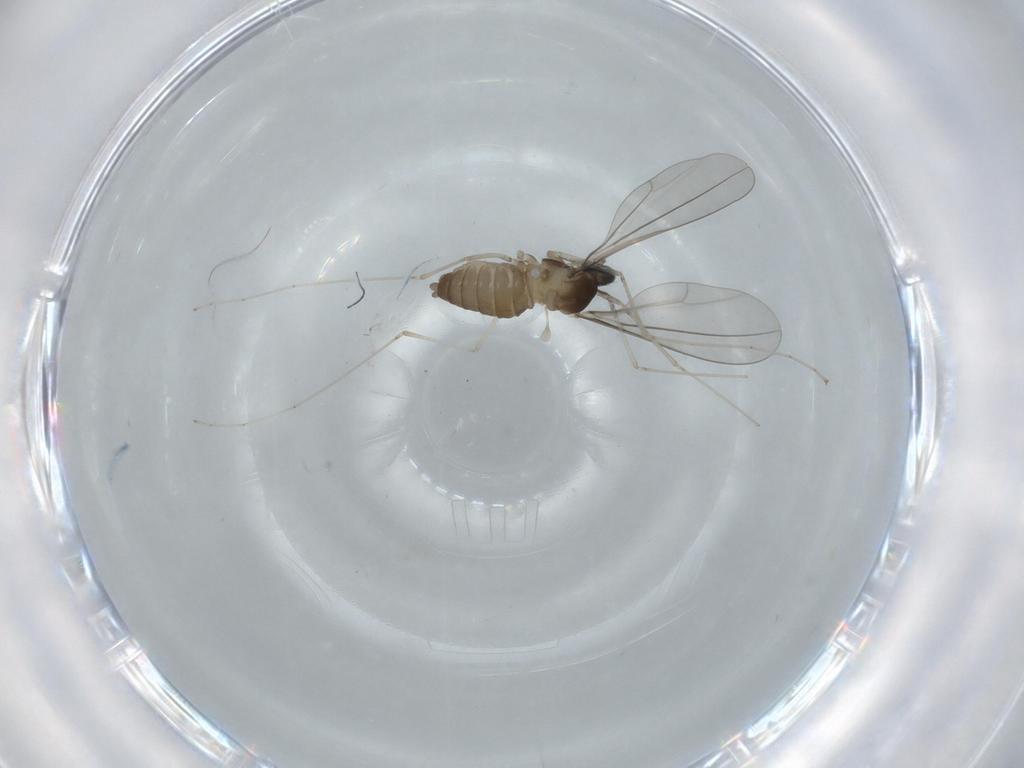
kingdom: Animalia
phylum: Arthropoda
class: Insecta
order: Diptera
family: Cecidomyiidae
